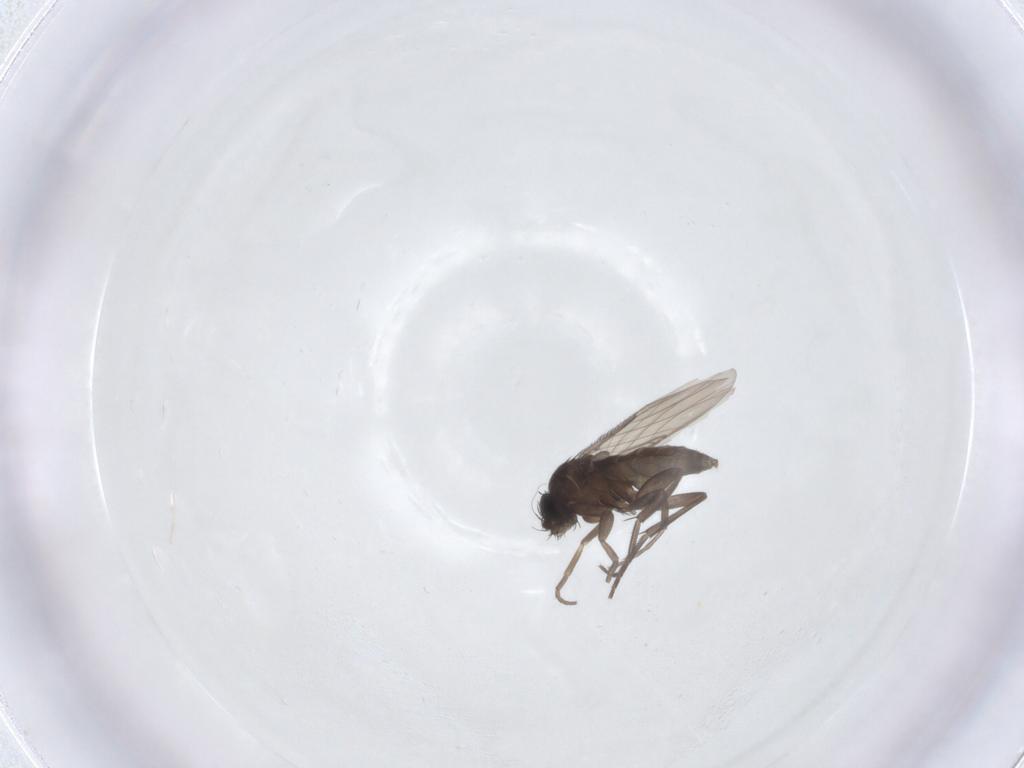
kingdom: Animalia
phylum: Arthropoda
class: Insecta
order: Diptera
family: Phoridae
